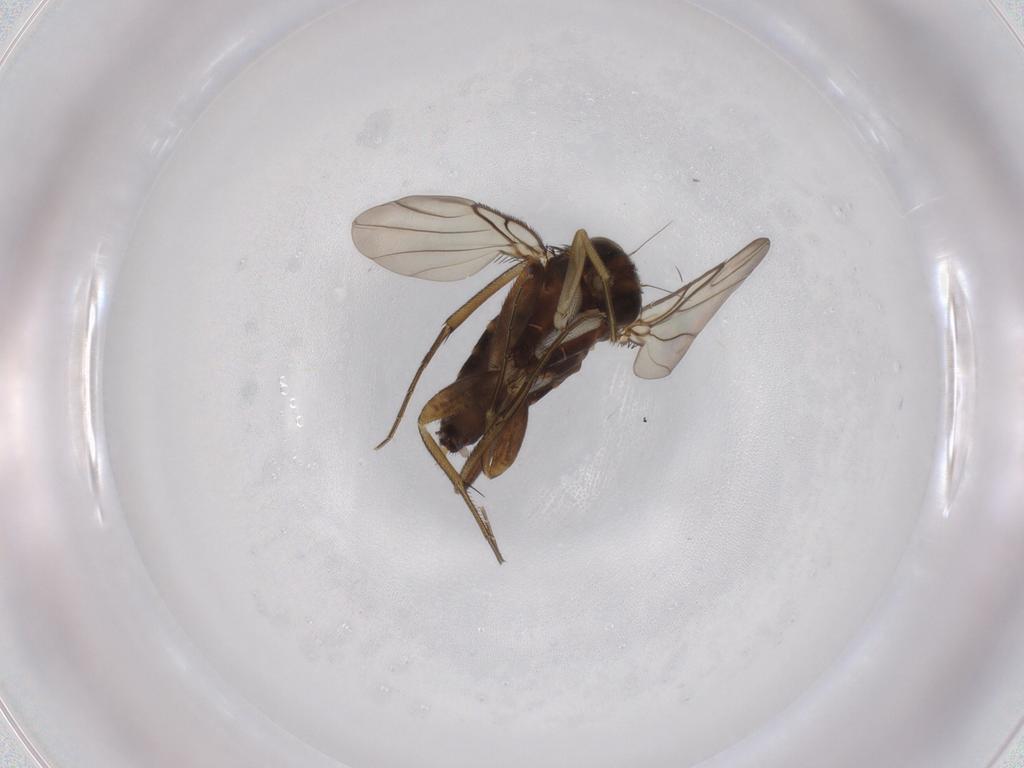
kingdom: Animalia
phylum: Arthropoda
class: Insecta
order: Diptera
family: Phoridae
